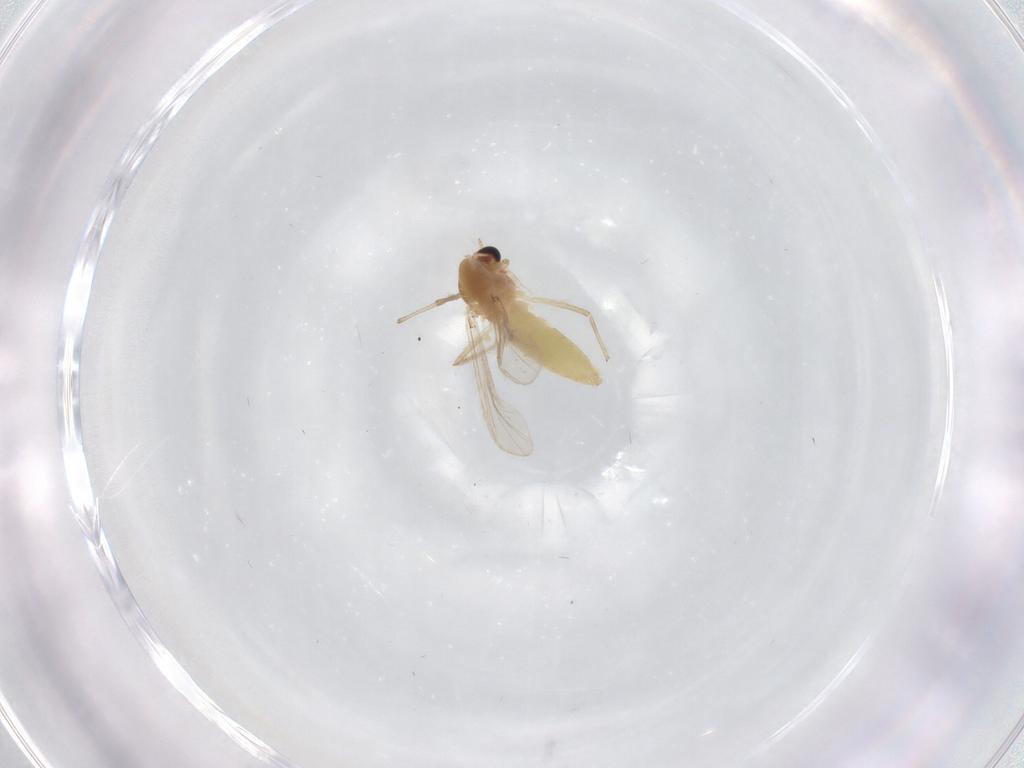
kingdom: Animalia
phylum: Arthropoda
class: Insecta
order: Diptera
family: Chironomidae
